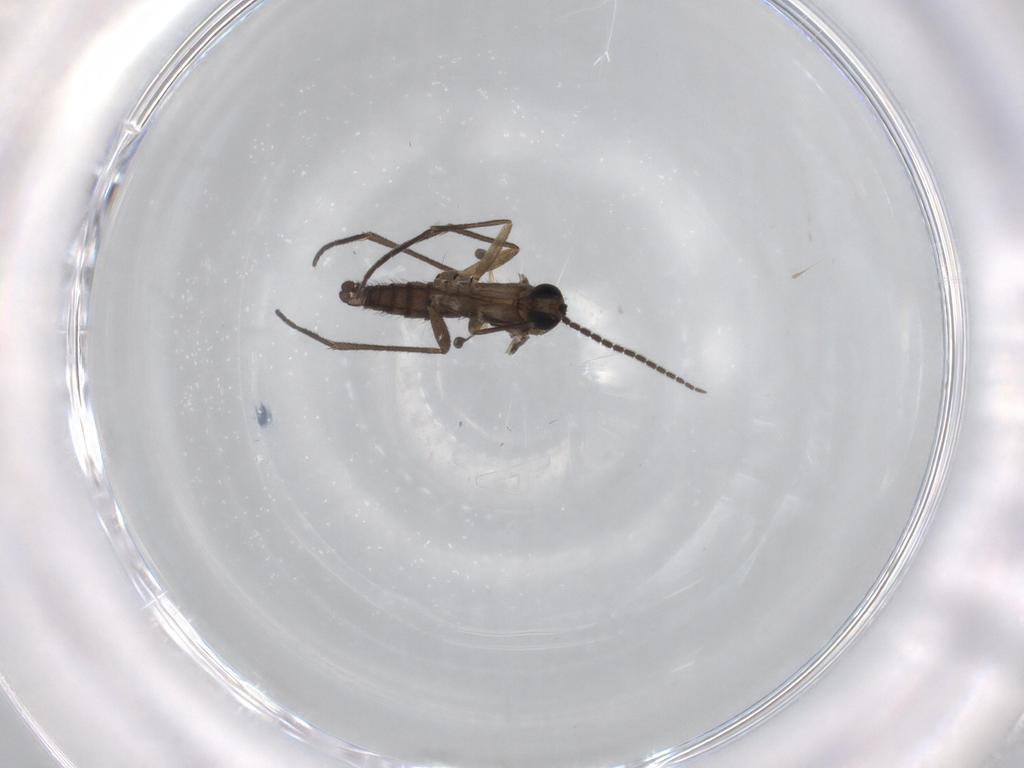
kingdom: Animalia
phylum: Arthropoda
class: Insecta
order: Diptera
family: Sciaridae
